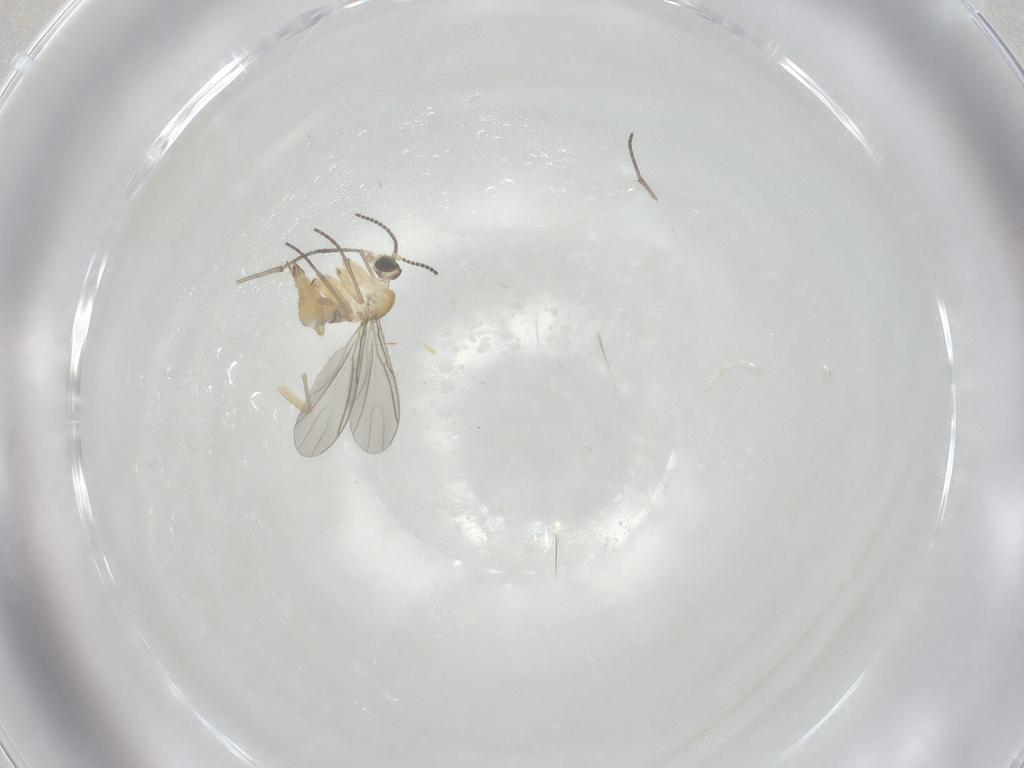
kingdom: Animalia
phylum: Arthropoda
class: Insecta
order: Diptera
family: Sciaridae
